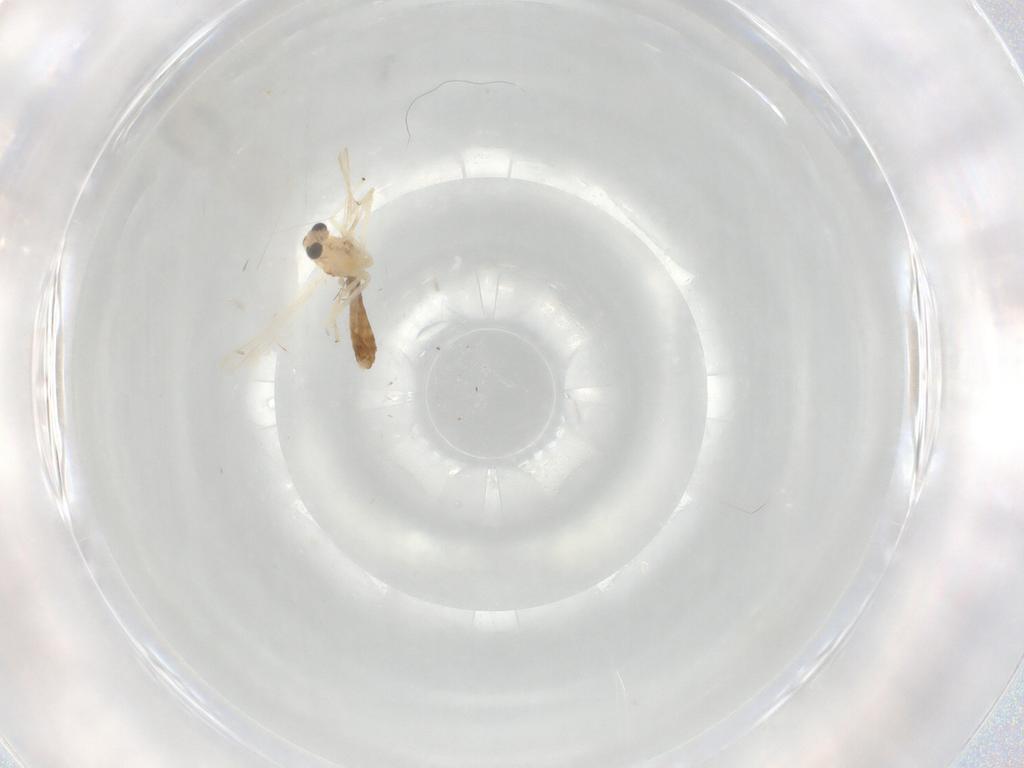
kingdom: Animalia
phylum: Arthropoda
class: Insecta
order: Diptera
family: Chironomidae
